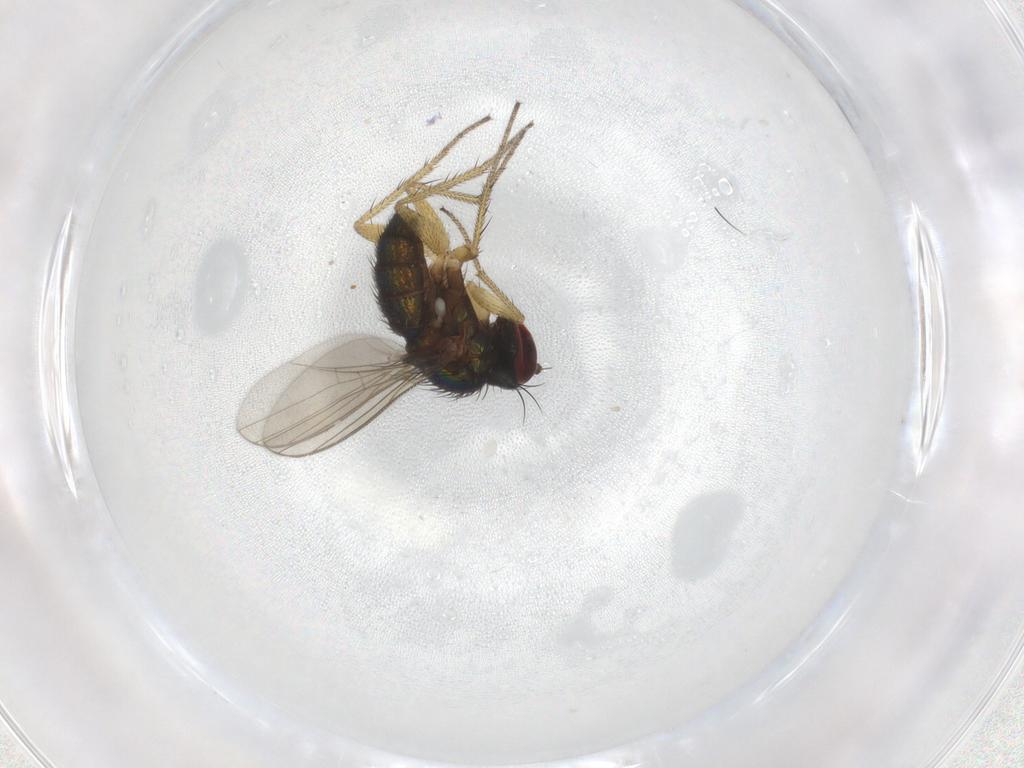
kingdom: Animalia
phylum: Arthropoda
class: Insecta
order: Diptera
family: Dolichopodidae
